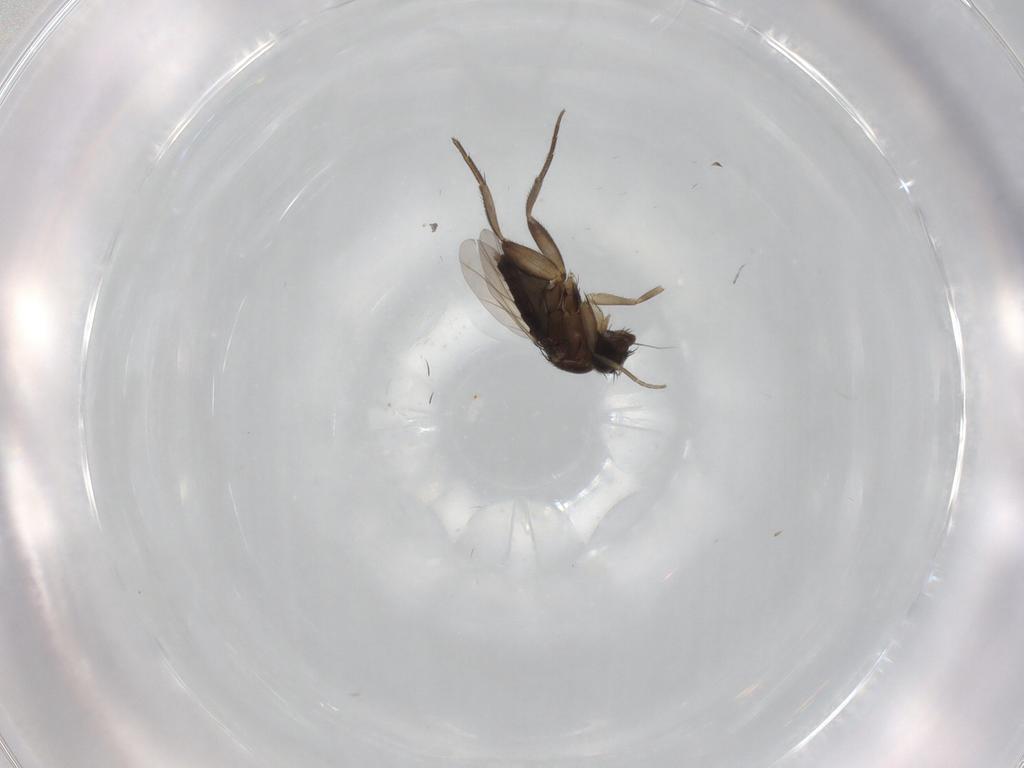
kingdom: Animalia
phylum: Arthropoda
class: Insecta
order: Diptera
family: Phoridae
